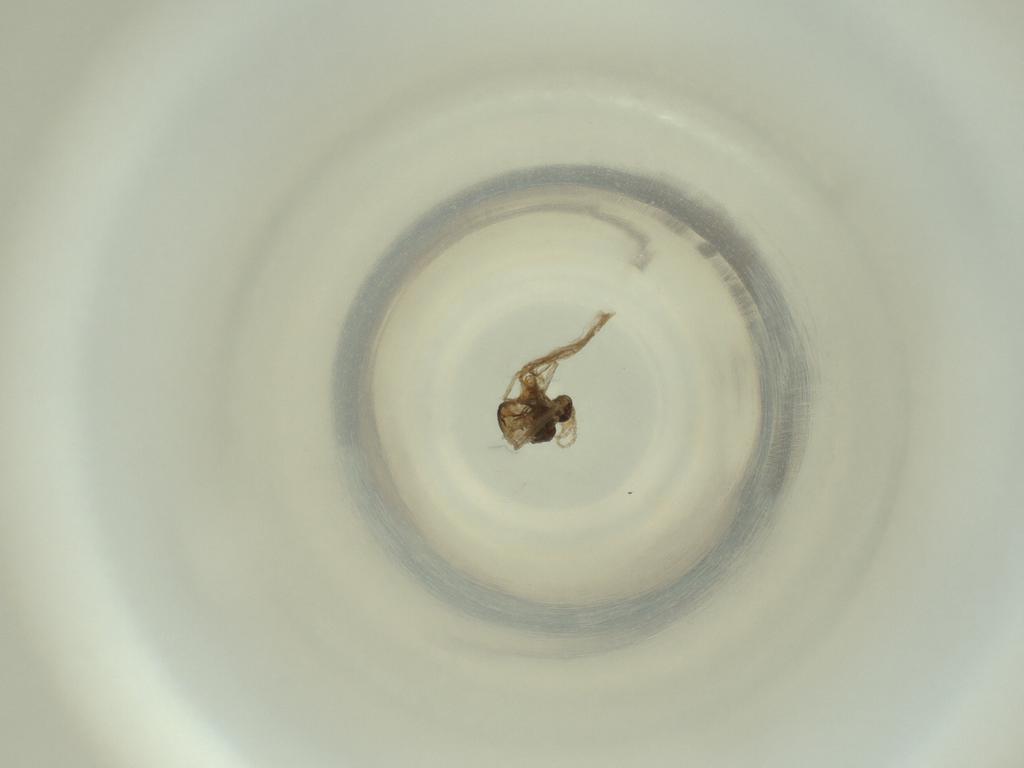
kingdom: Animalia
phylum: Arthropoda
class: Insecta
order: Diptera
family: Cecidomyiidae
